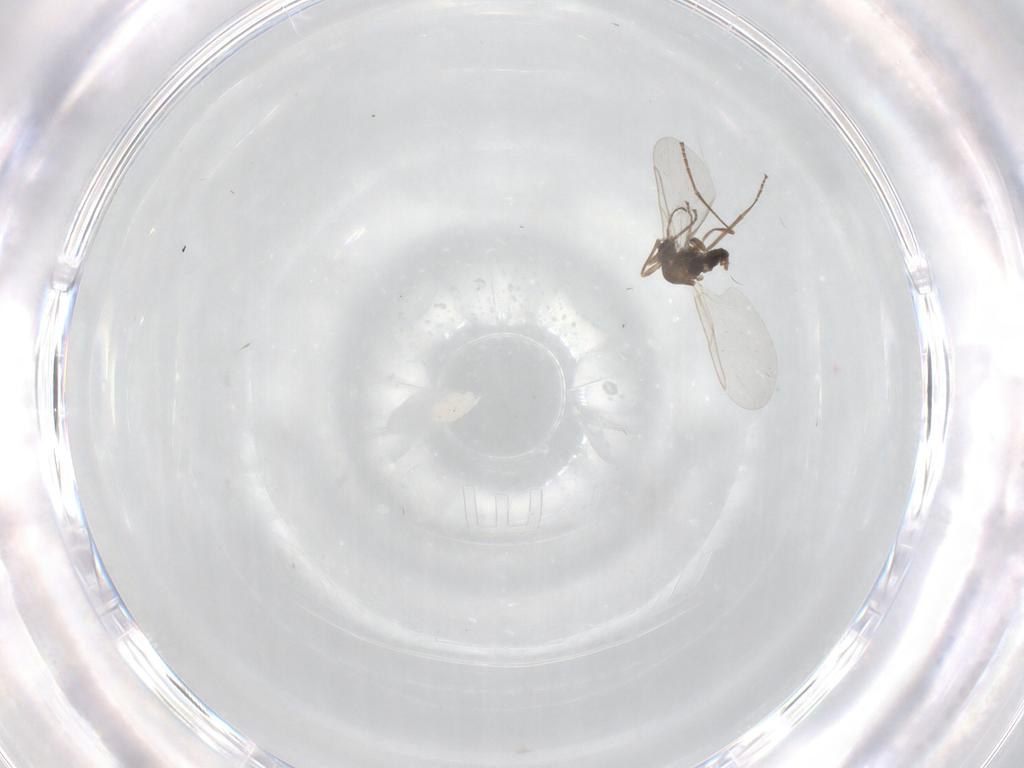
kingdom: Animalia
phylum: Arthropoda
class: Insecta
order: Diptera
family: Cecidomyiidae
